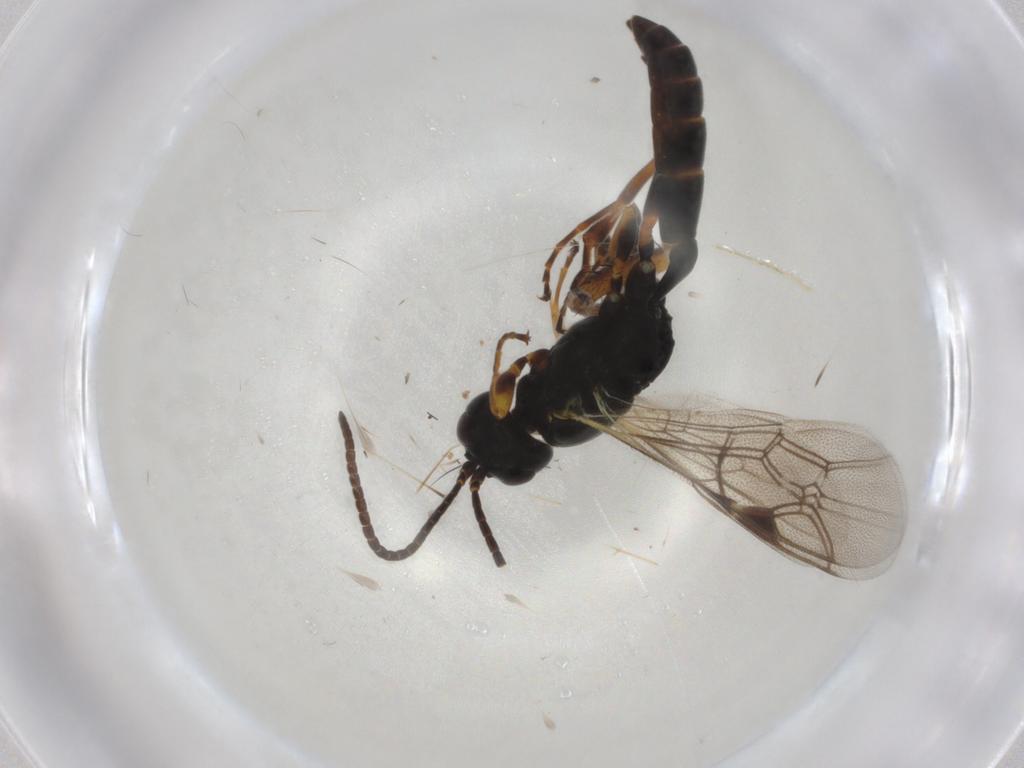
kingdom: Animalia
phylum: Arthropoda
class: Insecta
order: Hymenoptera
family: Ichneumonidae
